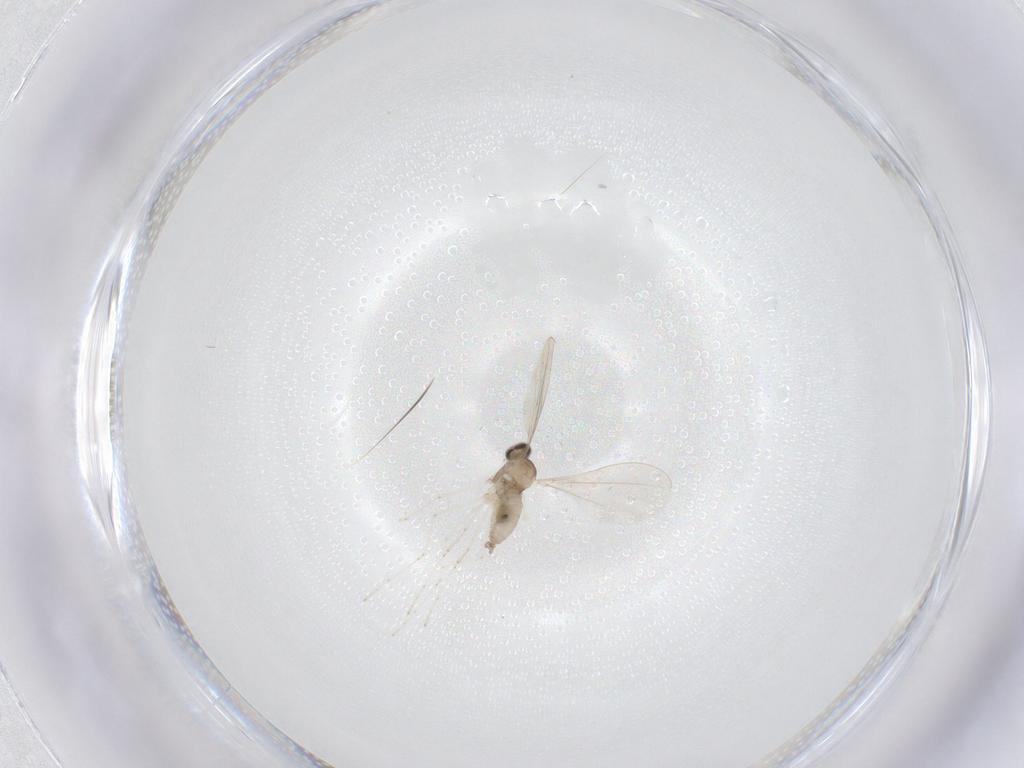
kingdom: Animalia
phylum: Arthropoda
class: Insecta
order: Diptera
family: Cecidomyiidae
